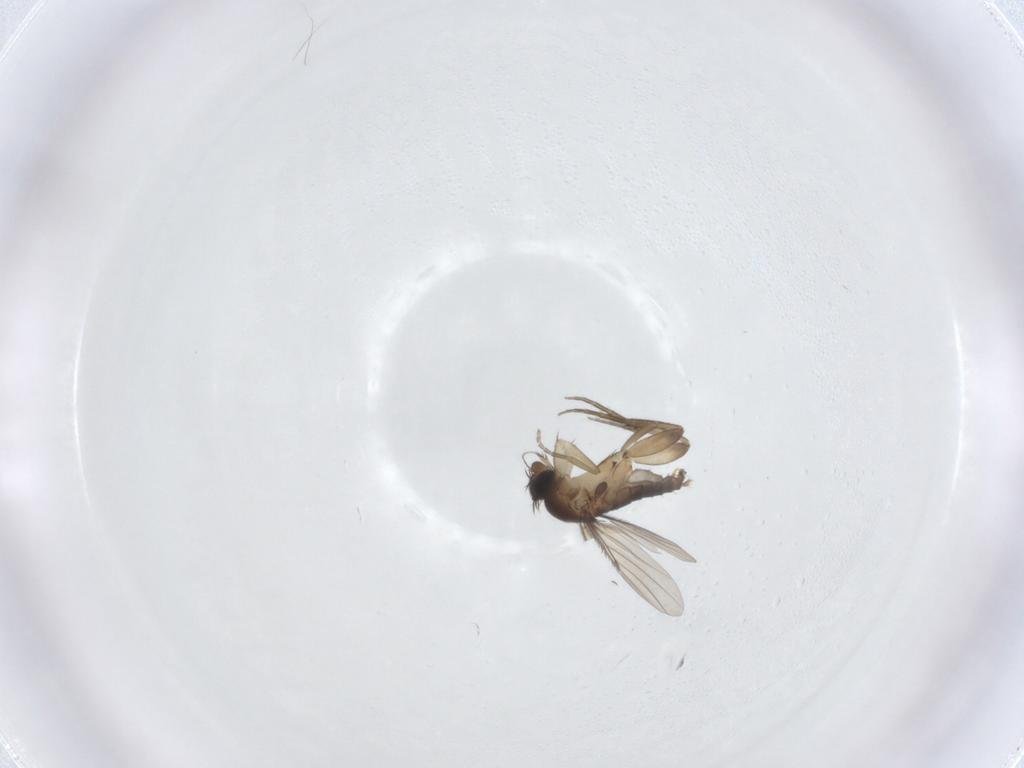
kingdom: Animalia
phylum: Arthropoda
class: Insecta
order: Diptera
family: Phoridae
